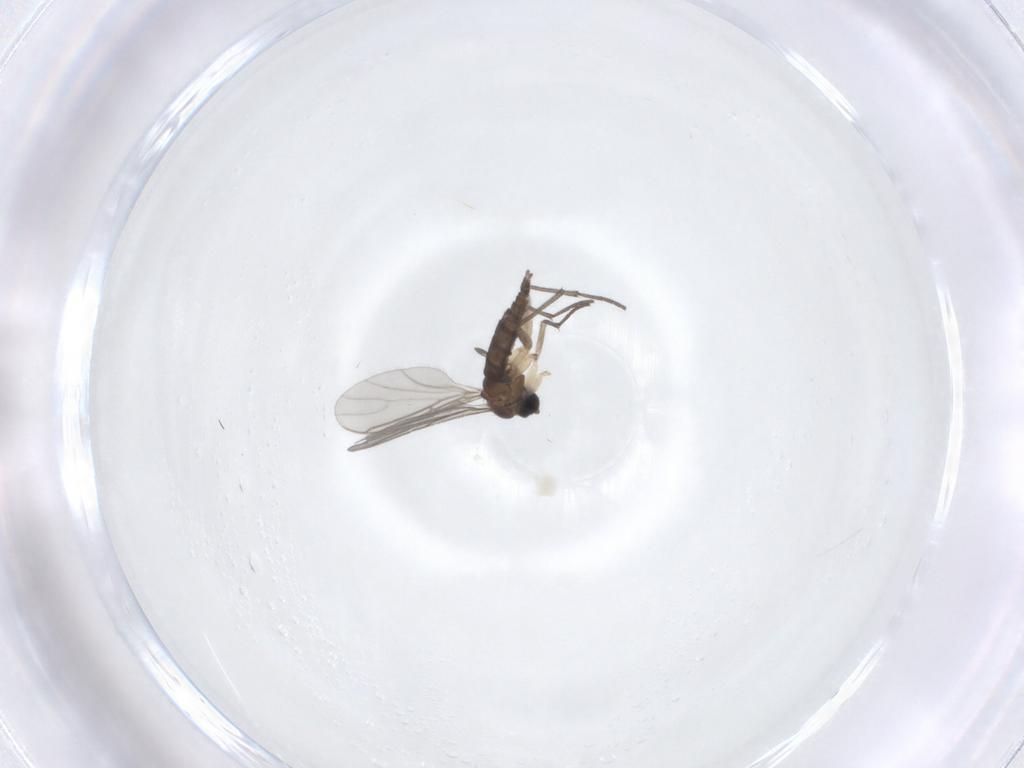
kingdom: Animalia
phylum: Arthropoda
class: Insecta
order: Diptera
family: Sciaridae
